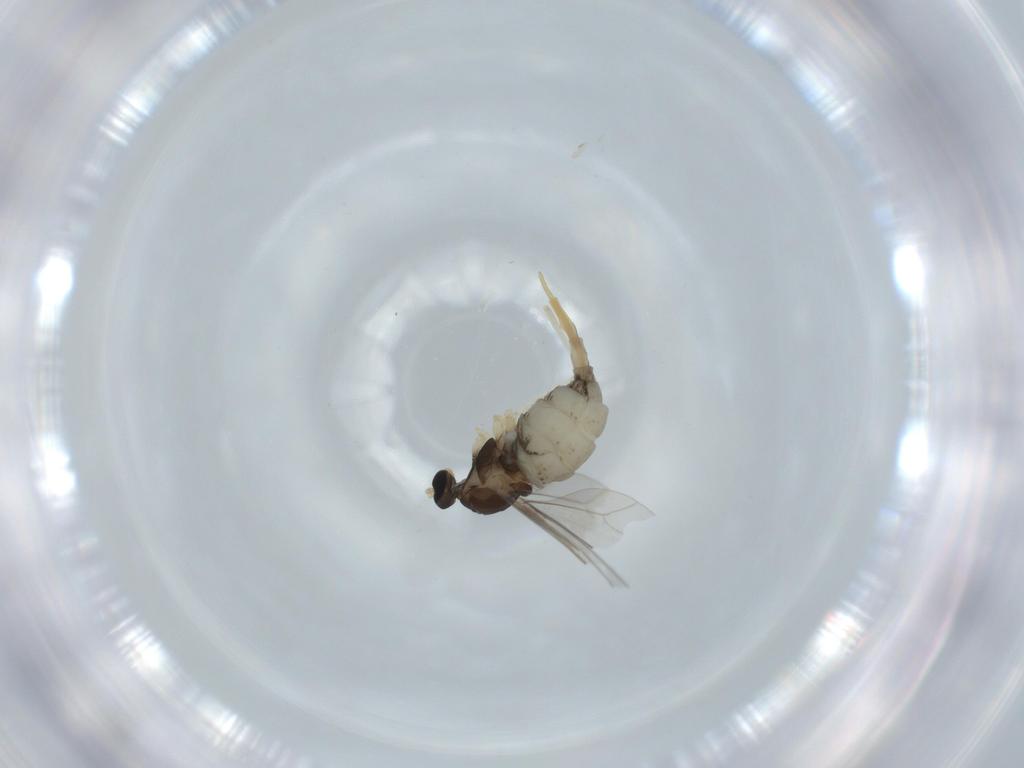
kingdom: Animalia
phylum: Arthropoda
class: Insecta
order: Diptera
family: Cecidomyiidae
